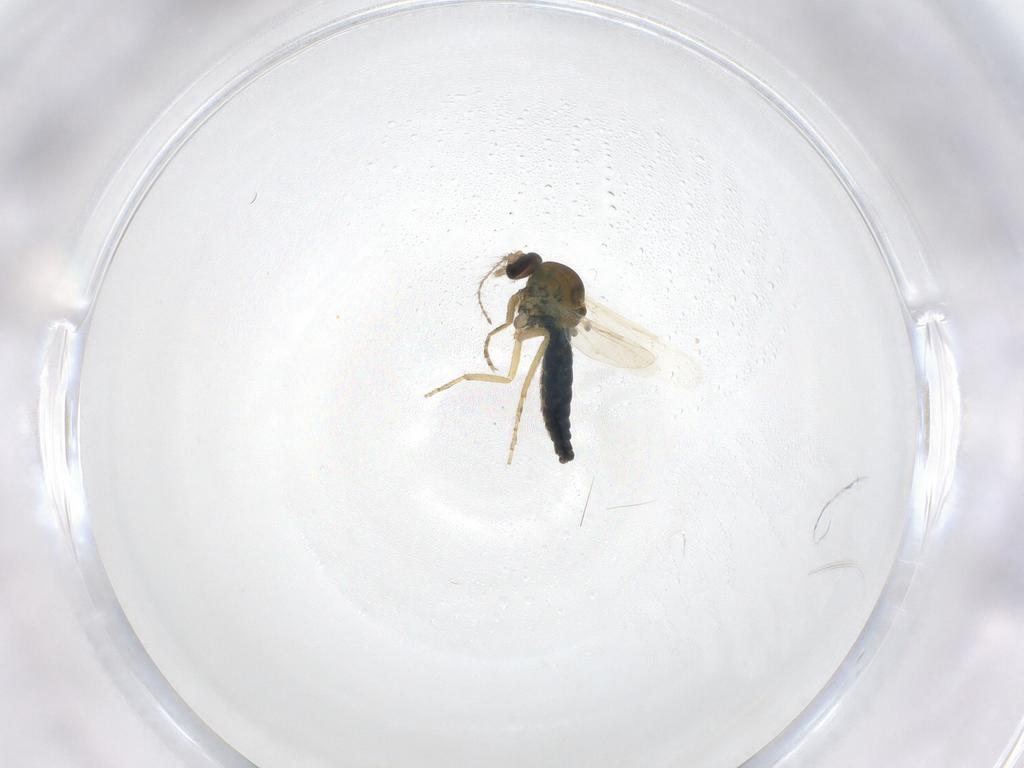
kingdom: Animalia
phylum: Arthropoda
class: Insecta
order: Diptera
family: Ceratopogonidae
